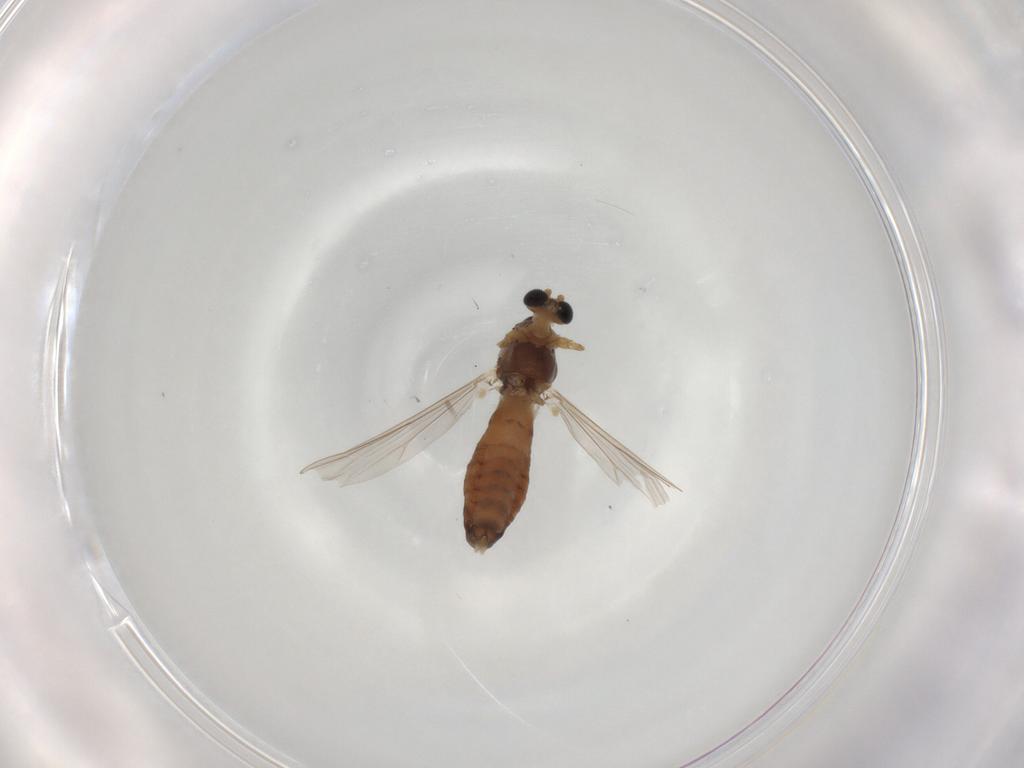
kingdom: Animalia
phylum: Arthropoda
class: Insecta
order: Diptera
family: Chironomidae
